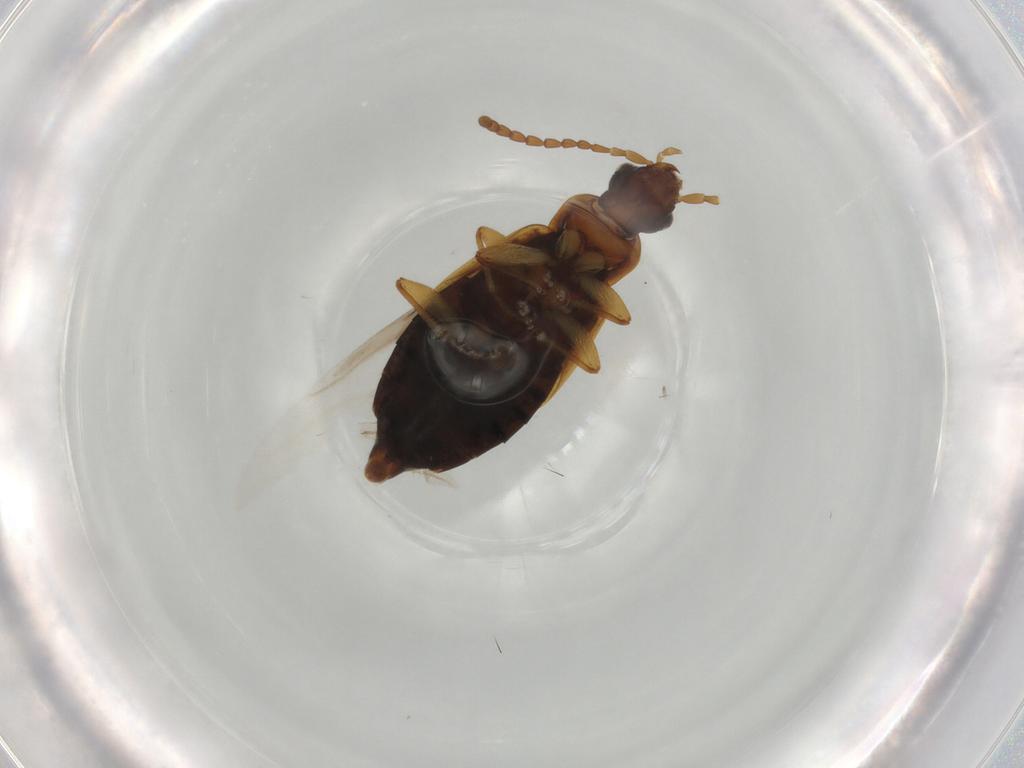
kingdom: Animalia
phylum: Arthropoda
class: Insecta
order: Coleoptera
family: Staphylinidae
